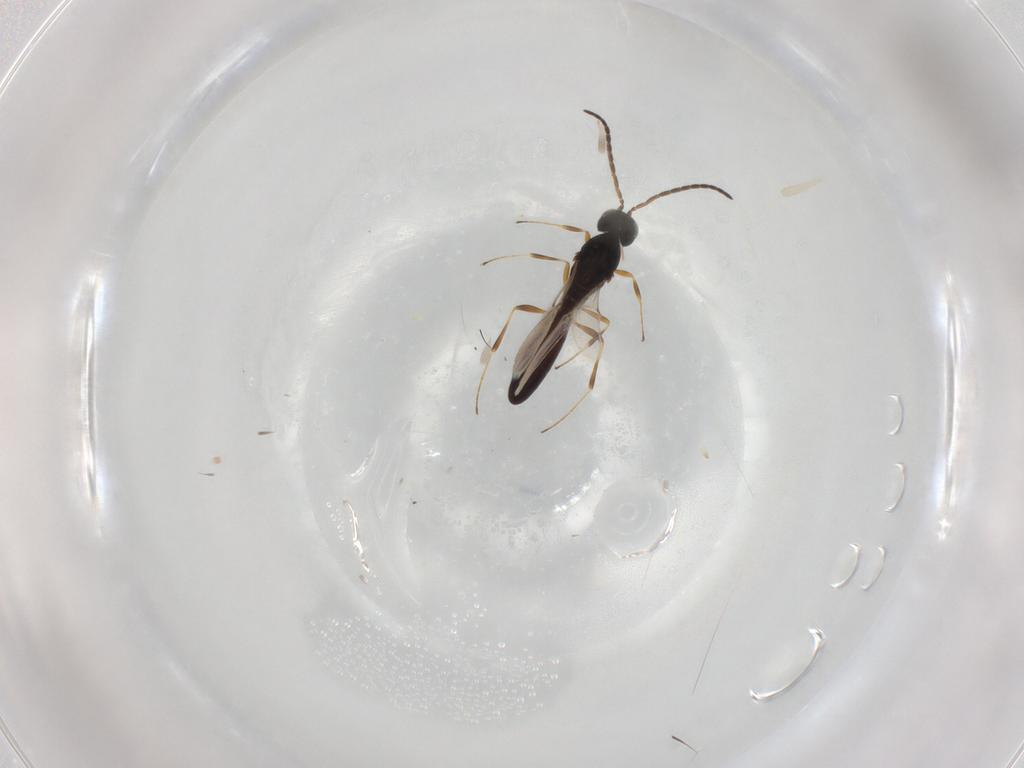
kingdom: Animalia
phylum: Arthropoda
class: Insecta
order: Hymenoptera
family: Scelionidae
